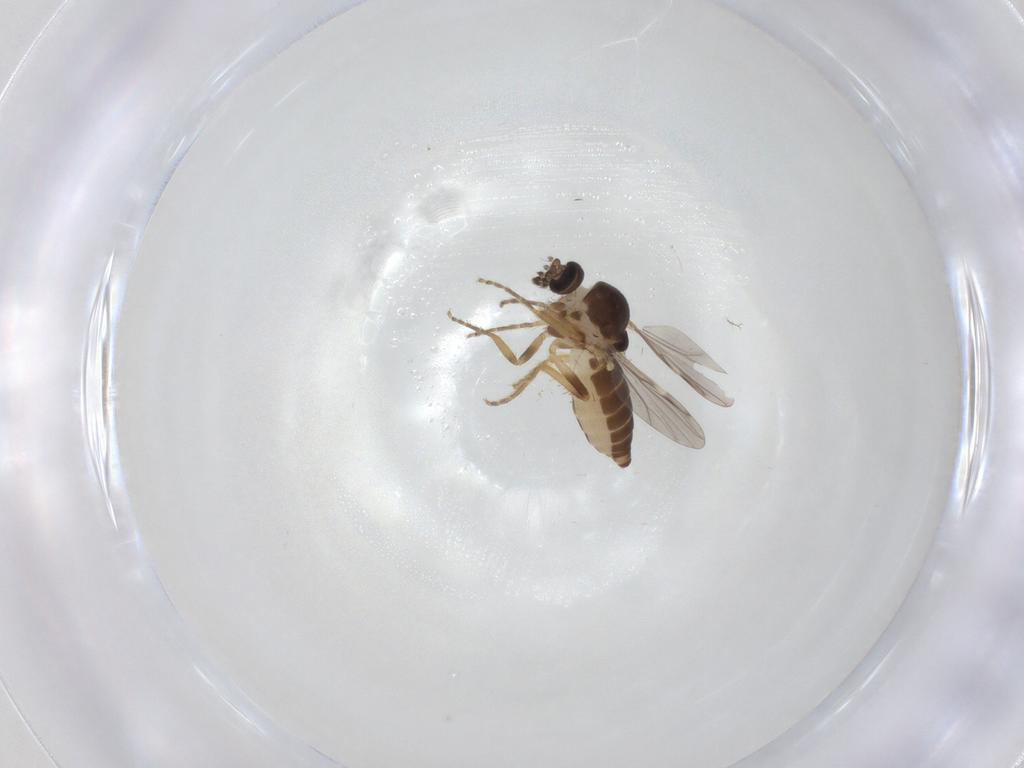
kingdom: Animalia
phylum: Arthropoda
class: Insecta
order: Diptera
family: Ceratopogonidae
